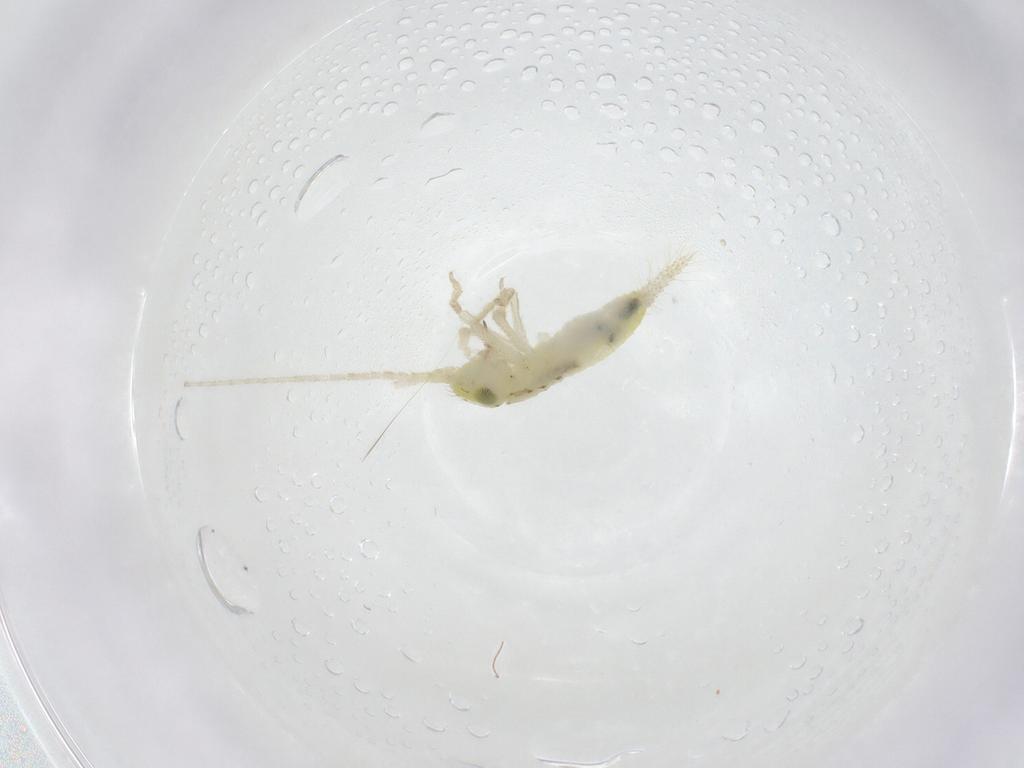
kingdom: Animalia
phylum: Arthropoda
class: Insecta
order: Orthoptera
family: Trigonidiidae
